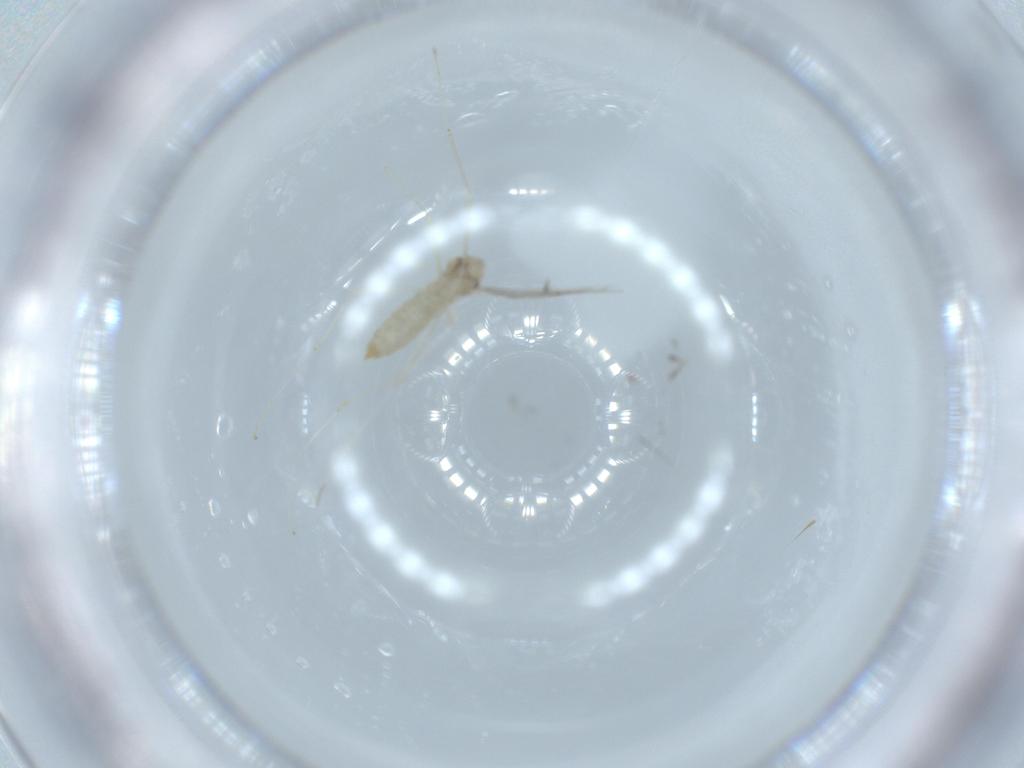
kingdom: Animalia
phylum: Arthropoda
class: Insecta
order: Diptera
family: Cecidomyiidae
